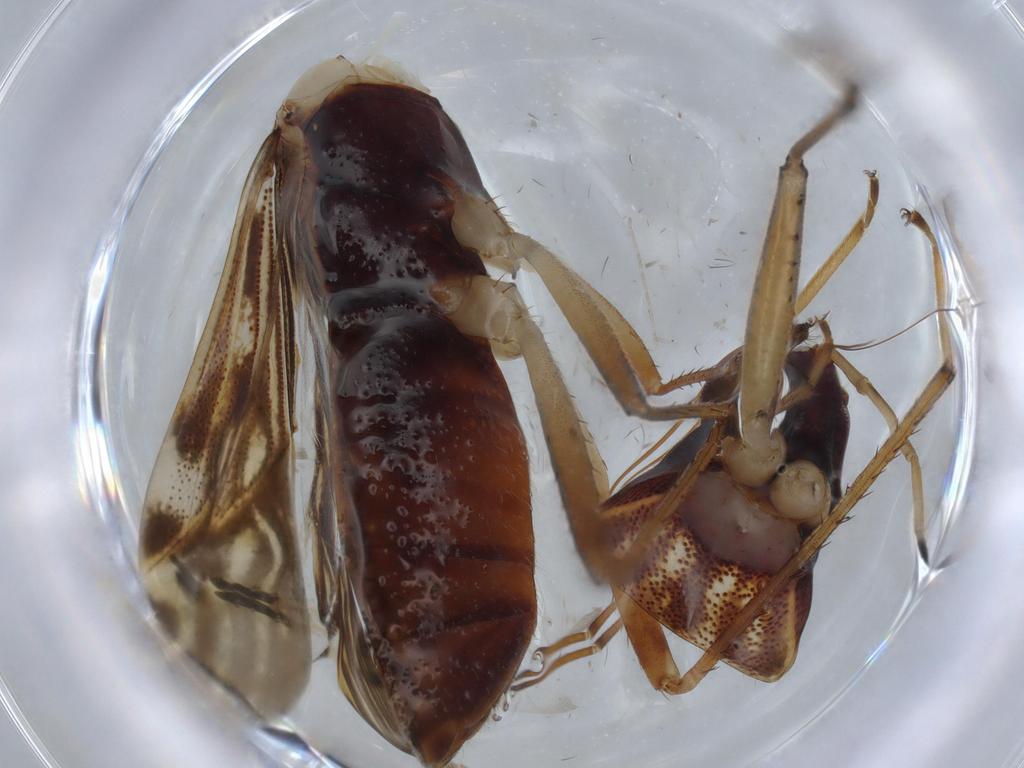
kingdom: Animalia
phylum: Arthropoda
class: Insecta
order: Hemiptera
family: Rhyparochromidae
